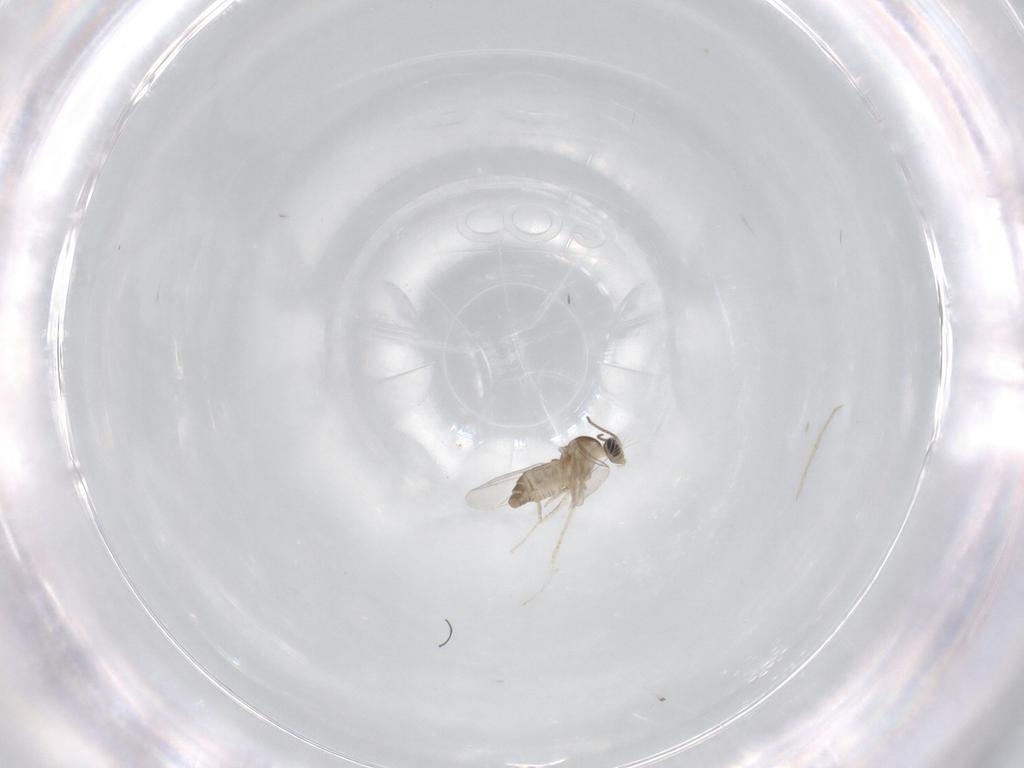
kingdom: Animalia
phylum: Arthropoda
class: Insecta
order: Diptera
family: Cecidomyiidae
